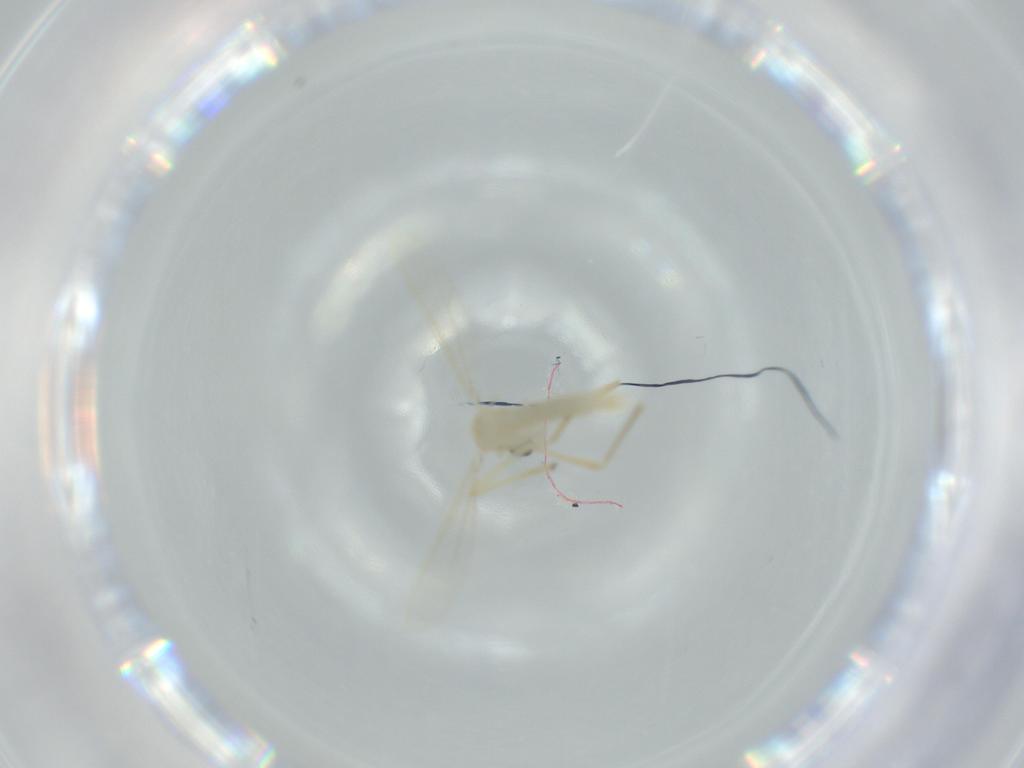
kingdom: Animalia
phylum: Arthropoda
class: Insecta
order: Diptera
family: Chironomidae
